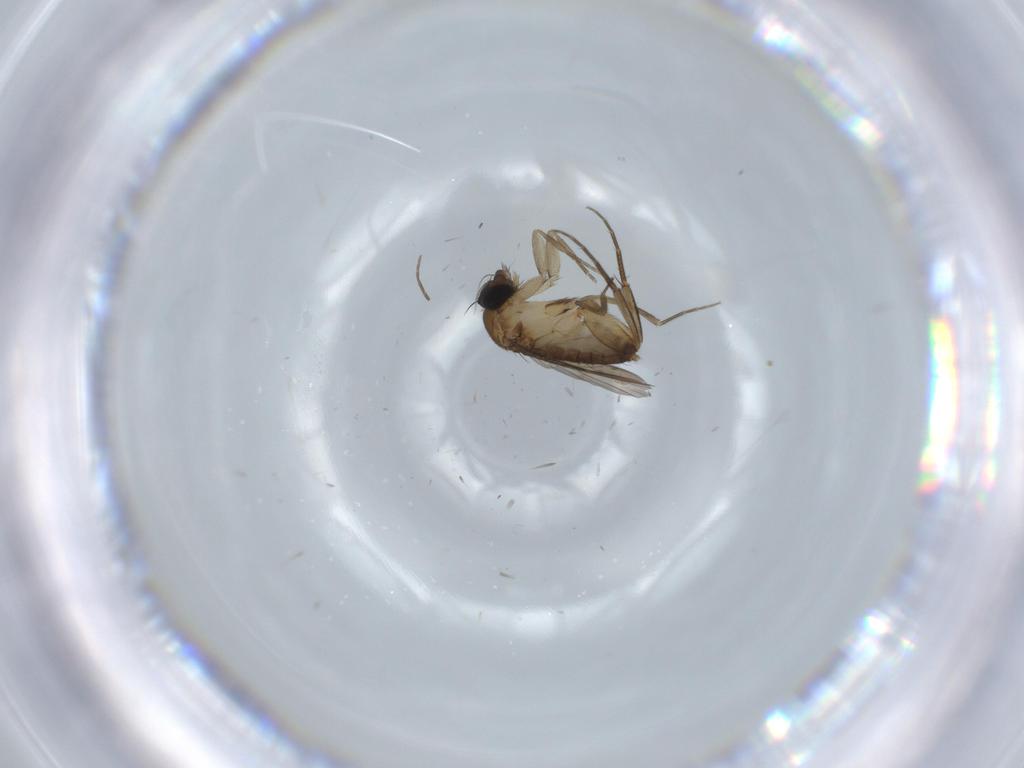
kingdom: Animalia
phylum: Arthropoda
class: Insecta
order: Diptera
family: Phoridae
